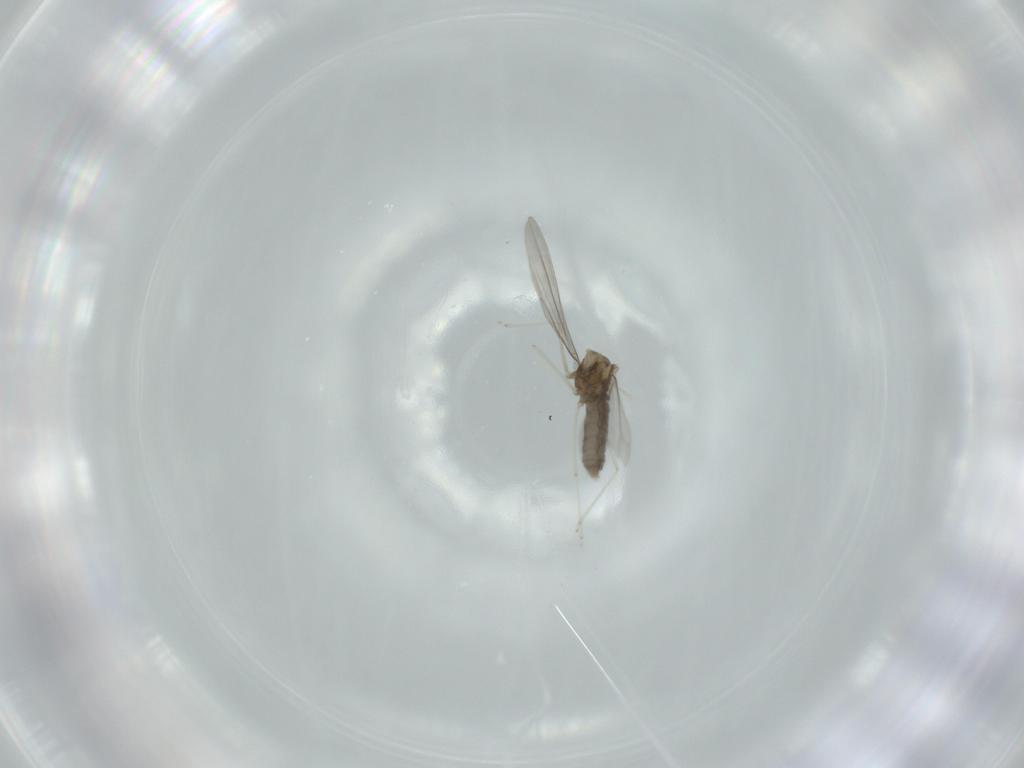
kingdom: Animalia
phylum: Arthropoda
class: Insecta
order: Diptera
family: Cecidomyiidae
